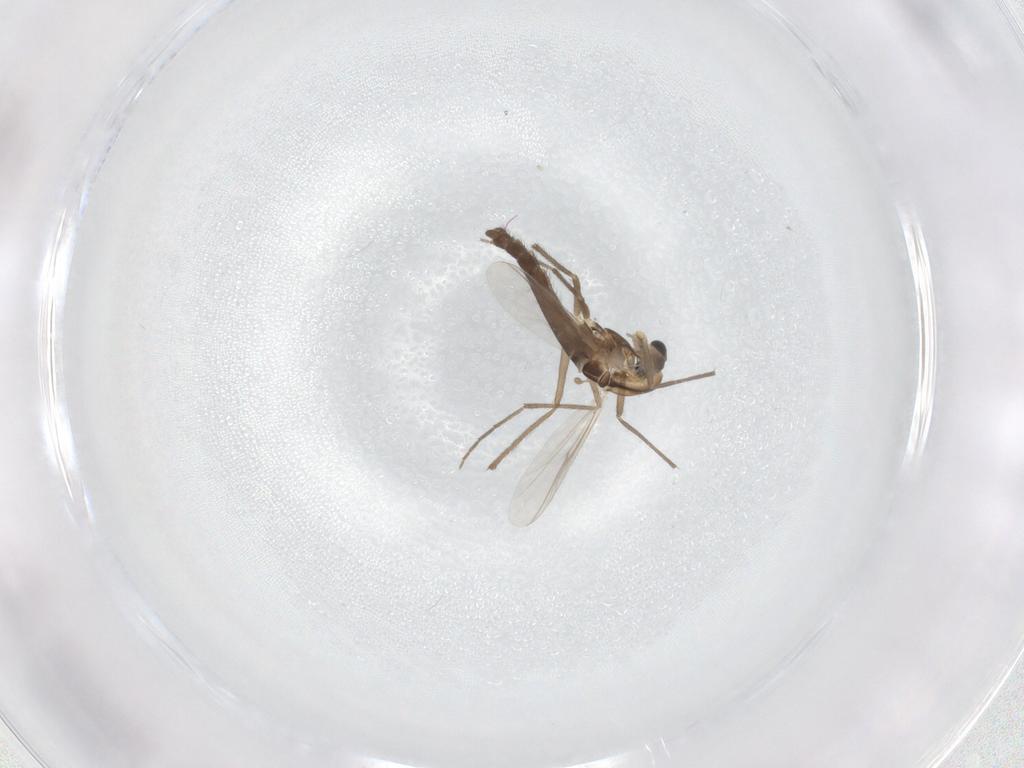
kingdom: Animalia
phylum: Arthropoda
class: Insecta
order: Diptera
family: Chironomidae
